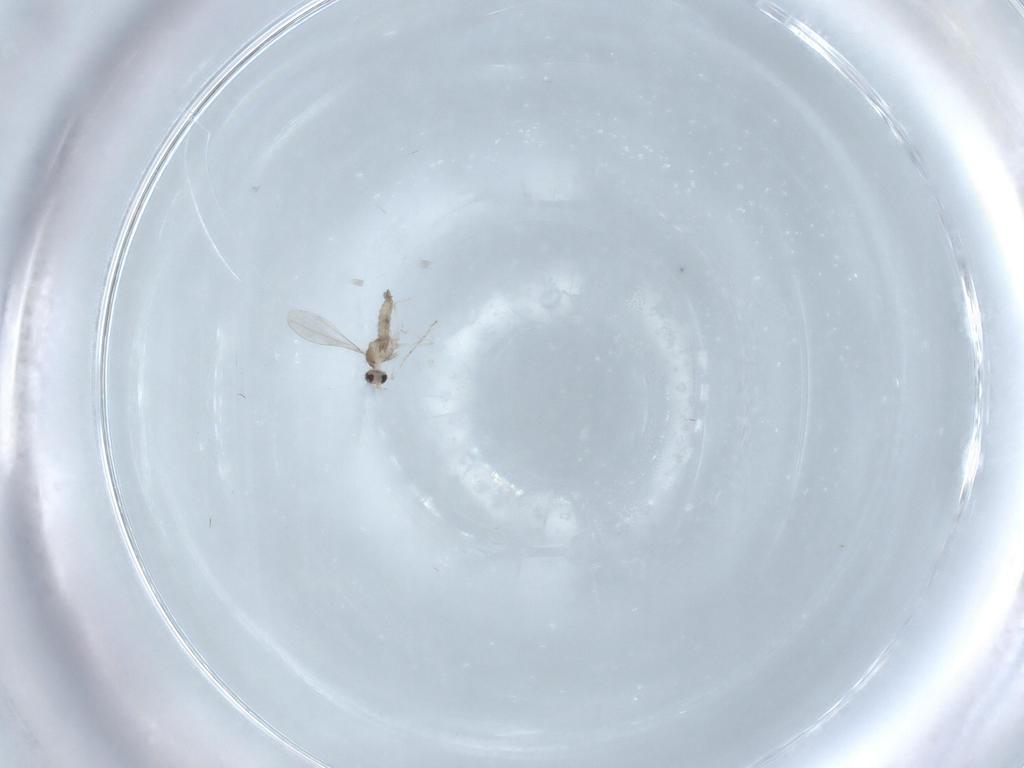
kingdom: Animalia
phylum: Arthropoda
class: Insecta
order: Diptera
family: Cecidomyiidae
